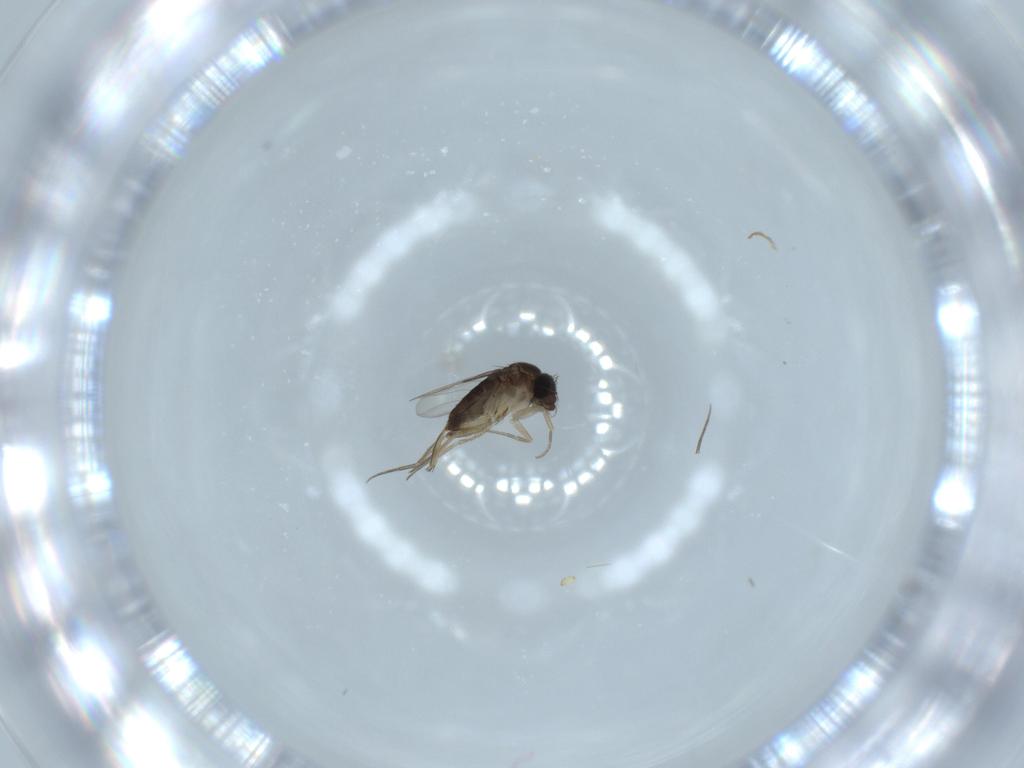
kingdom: Animalia
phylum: Arthropoda
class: Insecta
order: Diptera
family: Phoridae
